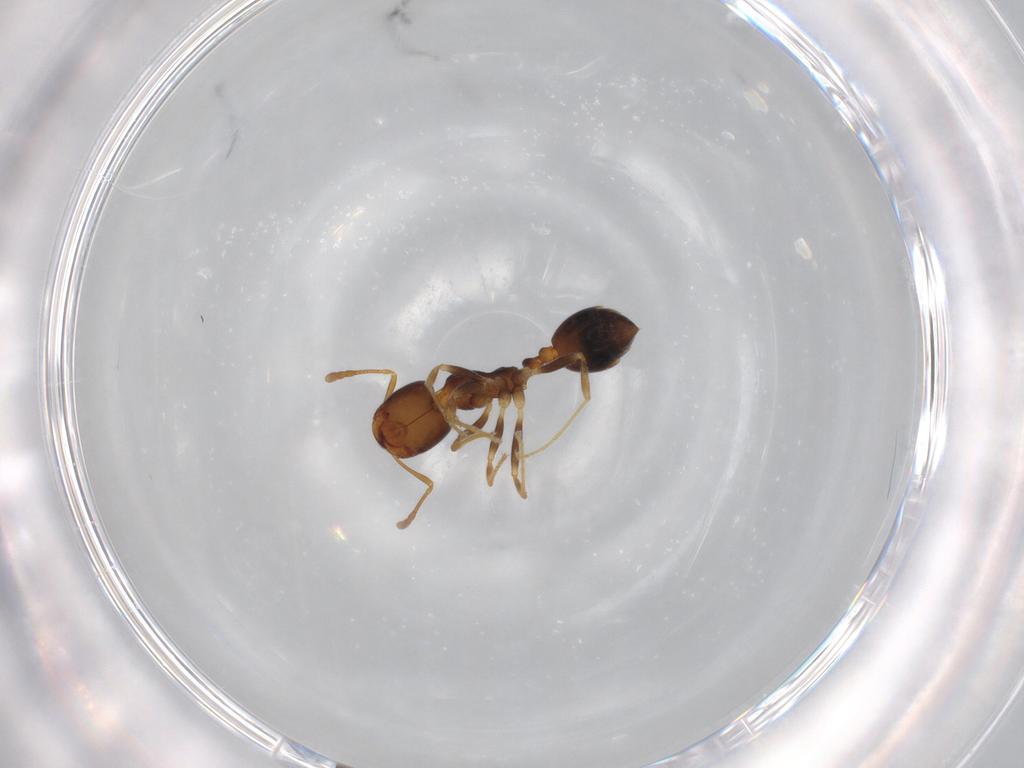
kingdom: Animalia
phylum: Arthropoda
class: Insecta
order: Hymenoptera
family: Formicidae
